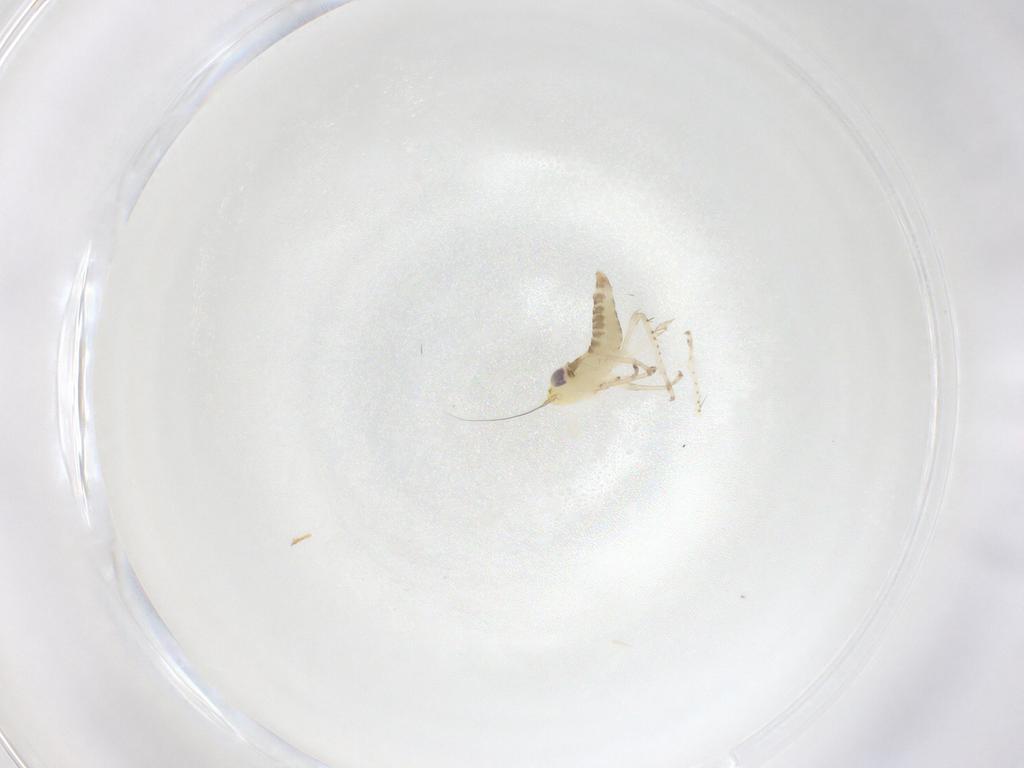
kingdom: Animalia
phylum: Arthropoda
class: Insecta
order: Hemiptera
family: Cicadellidae
